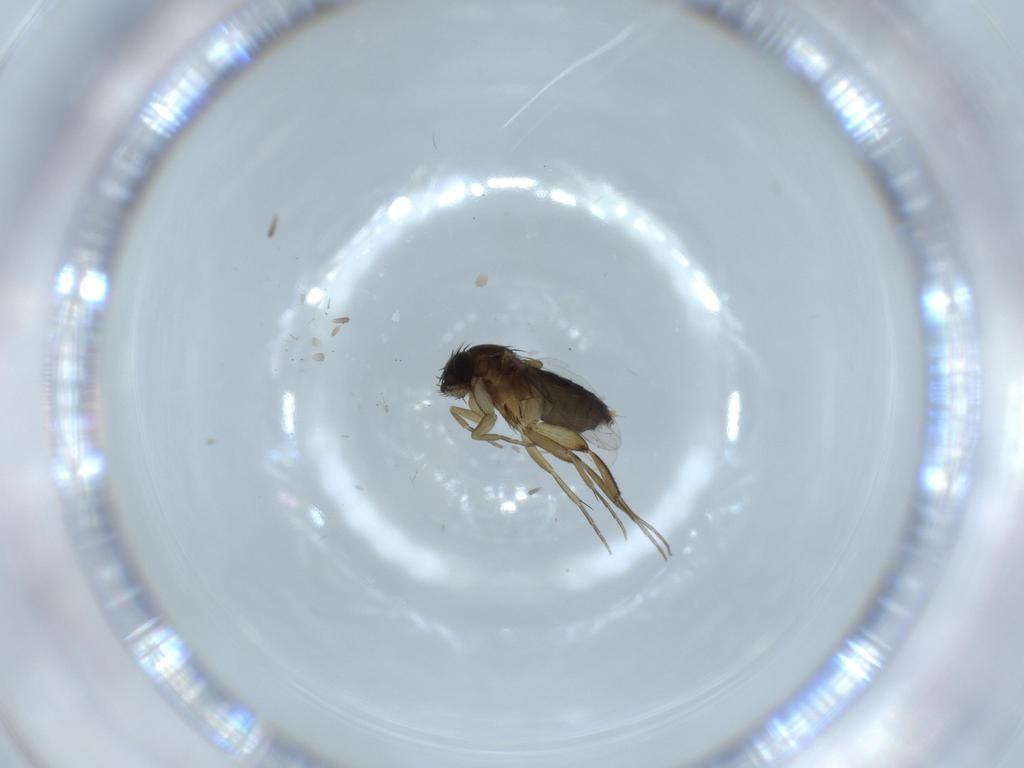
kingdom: Animalia
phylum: Arthropoda
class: Insecta
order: Diptera
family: Phoridae
